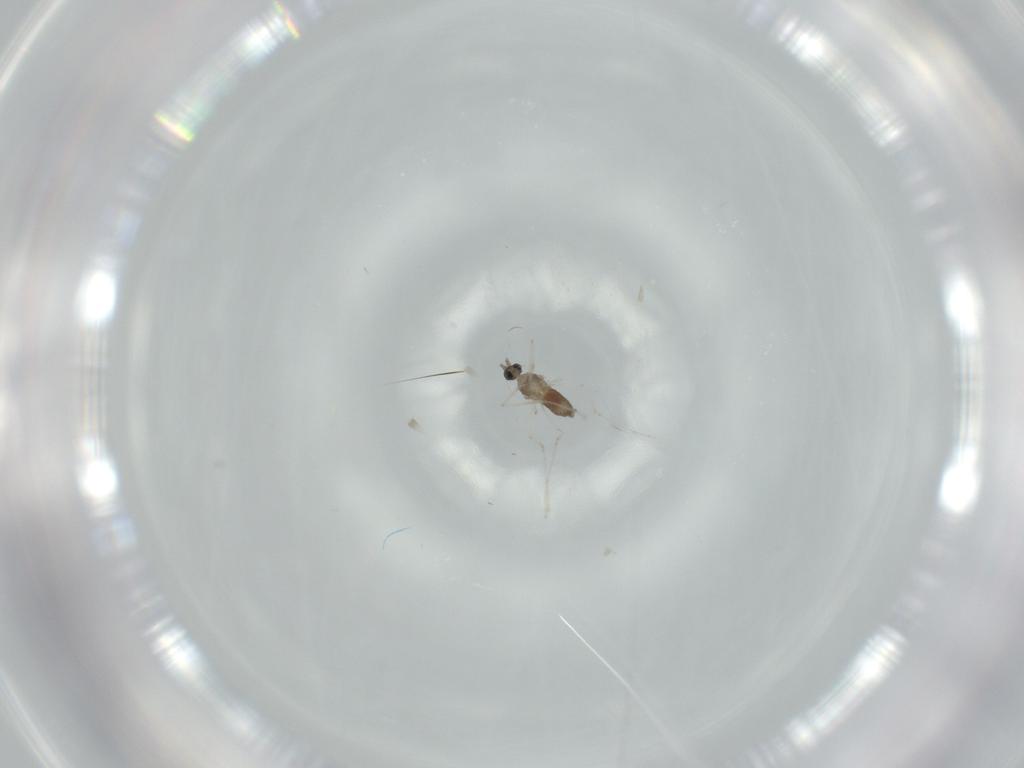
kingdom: Animalia
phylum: Arthropoda
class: Insecta
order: Diptera
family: Cecidomyiidae
